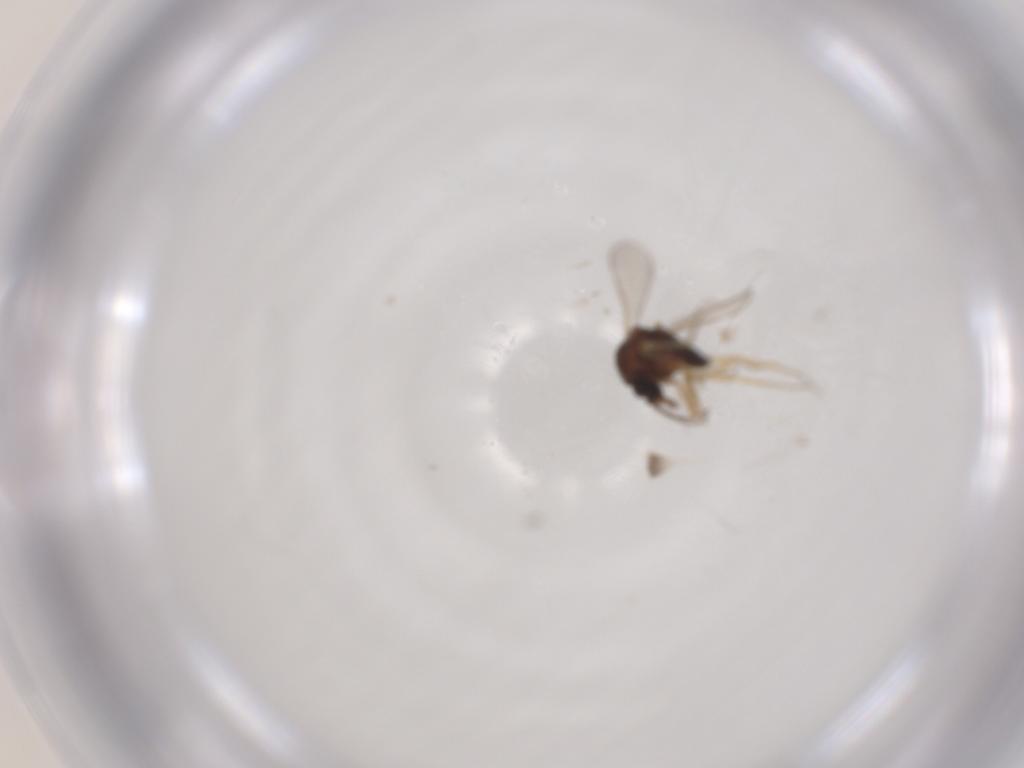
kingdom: Animalia
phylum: Arthropoda
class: Insecta
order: Diptera
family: Ceratopogonidae
